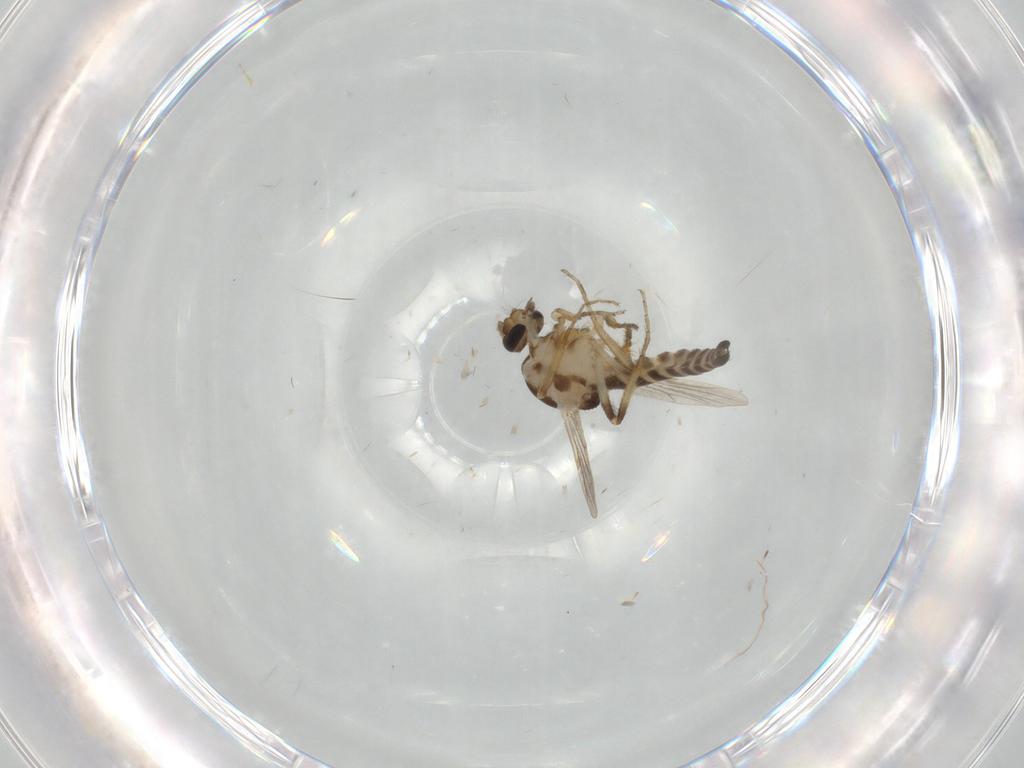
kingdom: Animalia
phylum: Arthropoda
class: Insecta
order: Diptera
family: Ceratopogonidae
